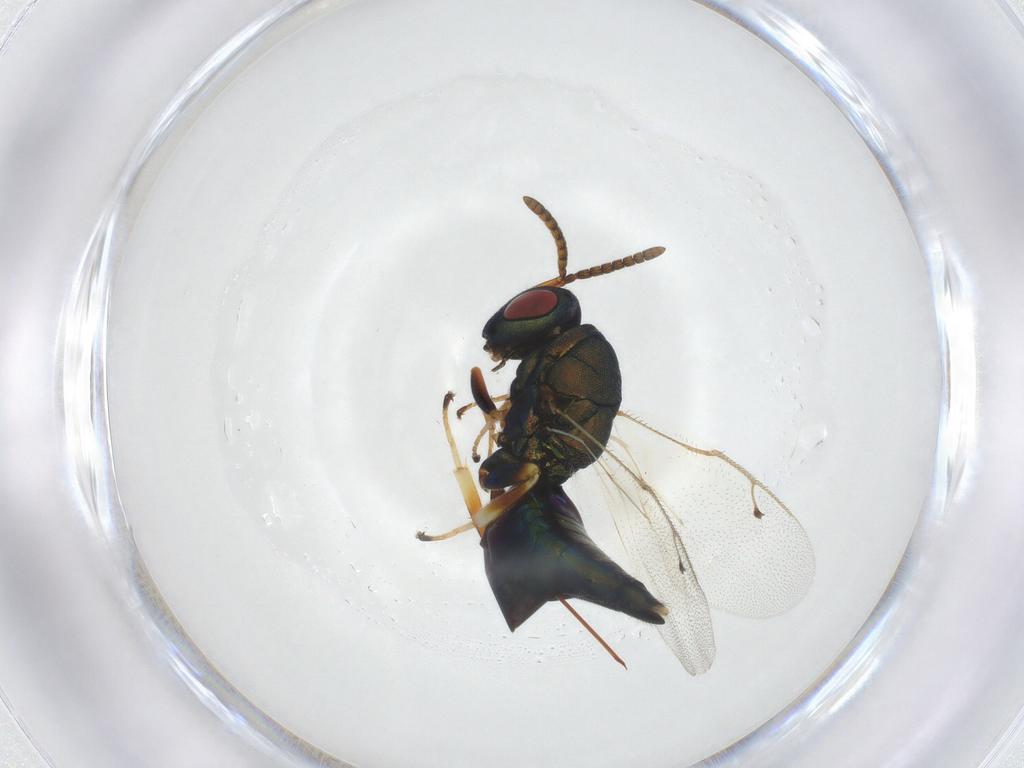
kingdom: Animalia
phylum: Arthropoda
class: Insecta
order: Hymenoptera
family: Pteromalidae
